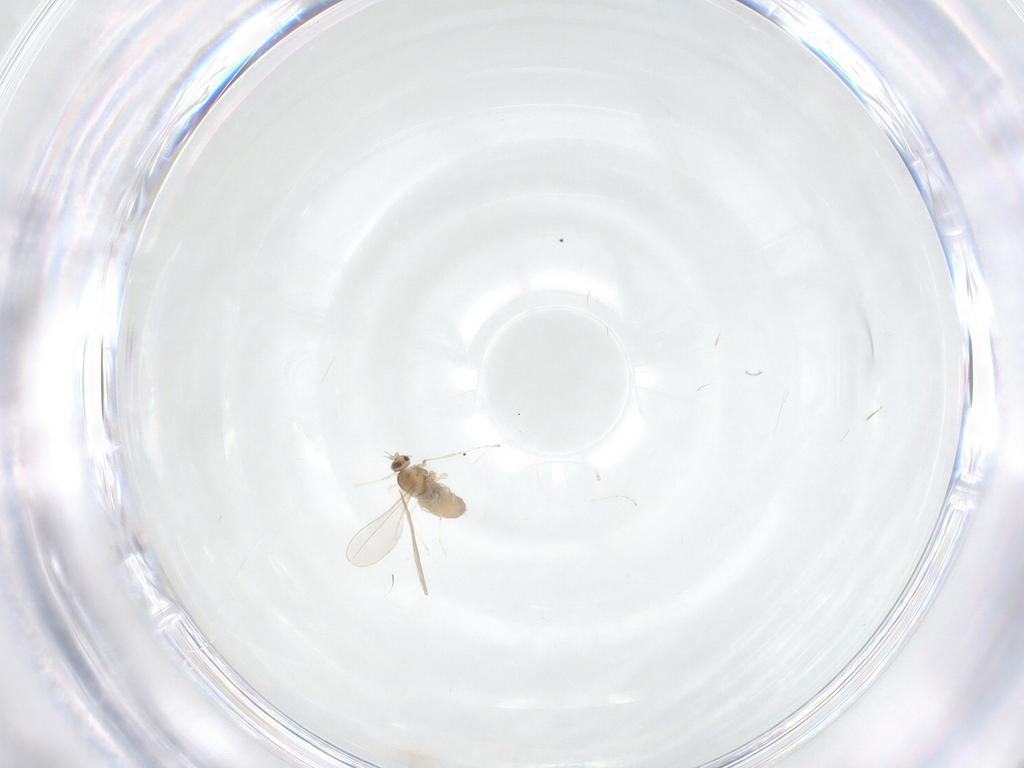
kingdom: Animalia
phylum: Arthropoda
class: Insecta
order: Diptera
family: Cecidomyiidae
